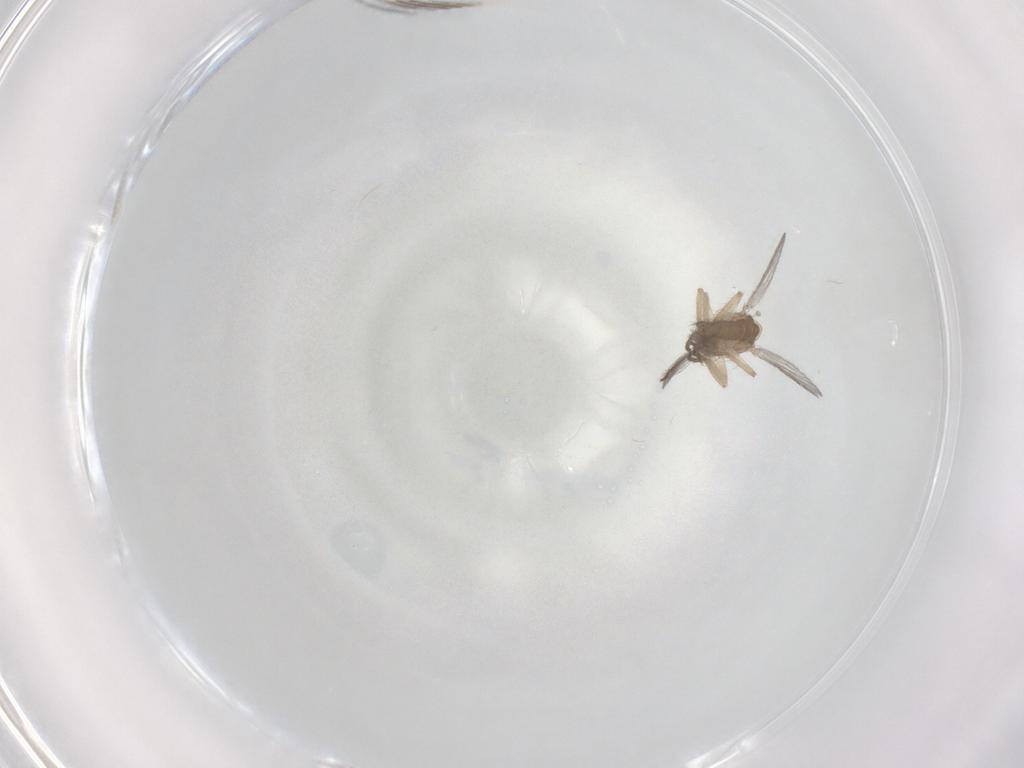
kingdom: Animalia
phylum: Arthropoda
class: Insecta
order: Diptera
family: Chironomidae
